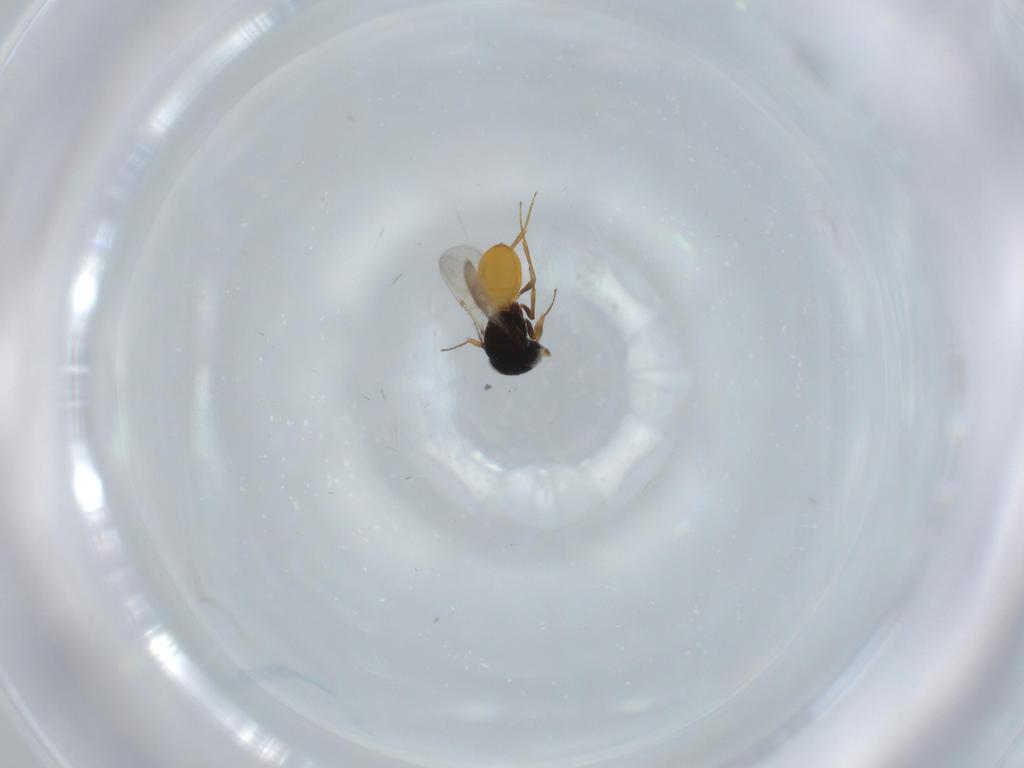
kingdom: Animalia
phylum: Arthropoda
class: Insecta
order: Hymenoptera
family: Scelionidae
